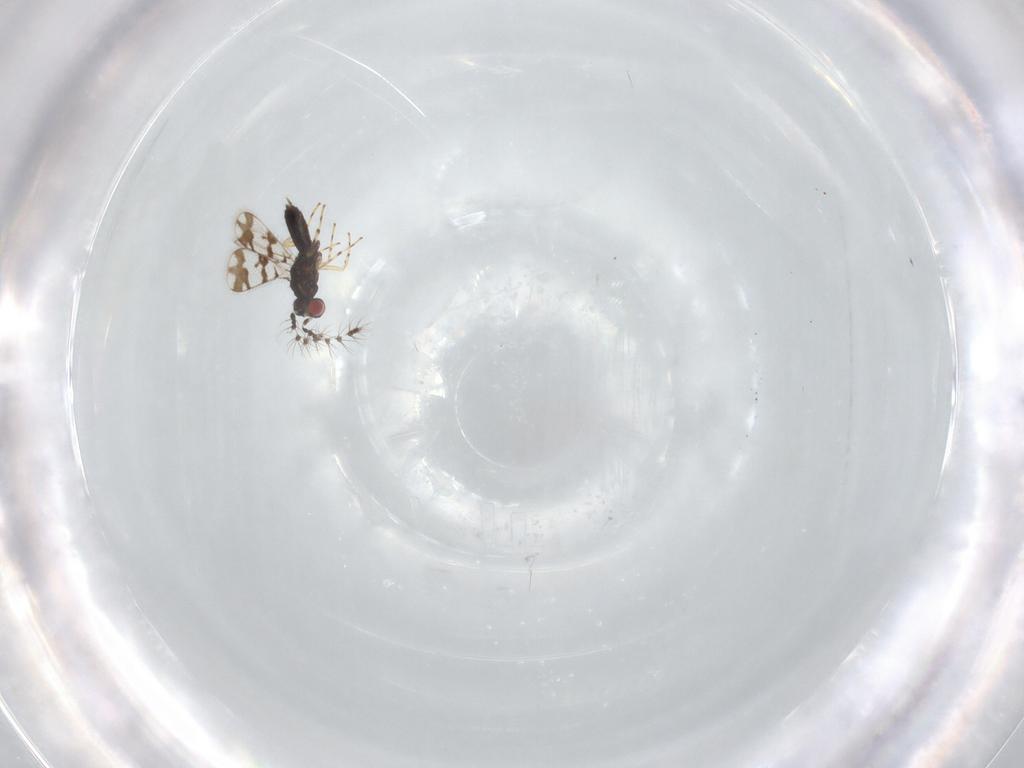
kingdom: Animalia
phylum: Arthropoda
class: Insecta
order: Hymenoptera
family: Eulophidae
